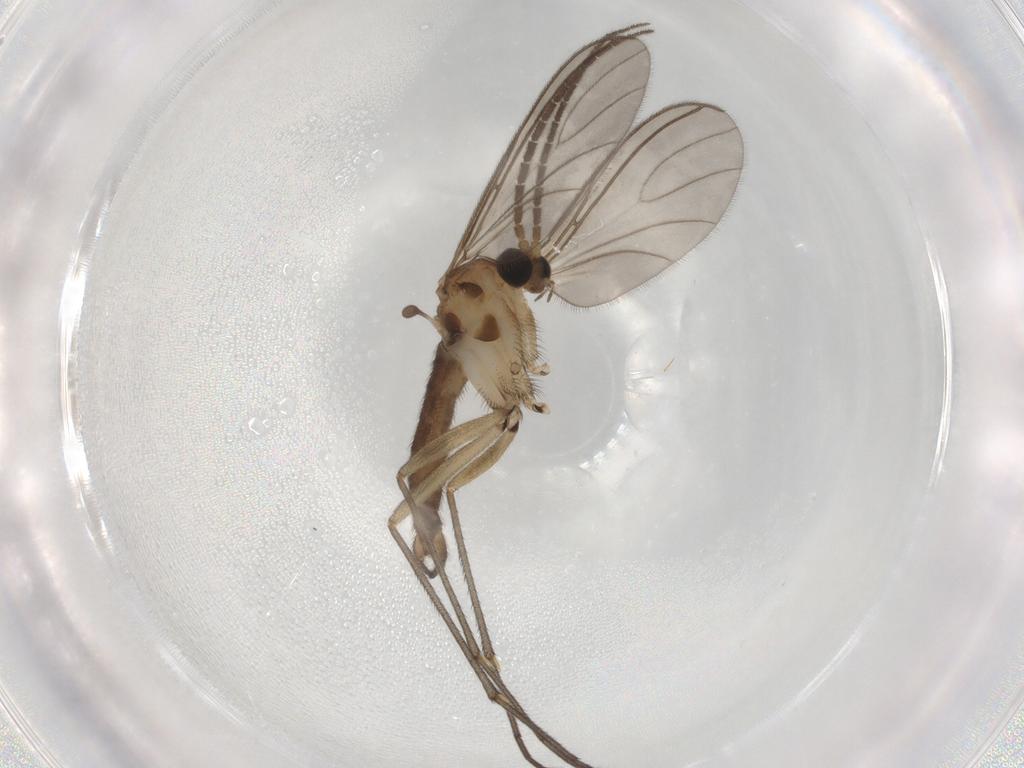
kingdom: Animalia
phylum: Arthropoda
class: Insecta
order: Diptera
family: Sciaridae
